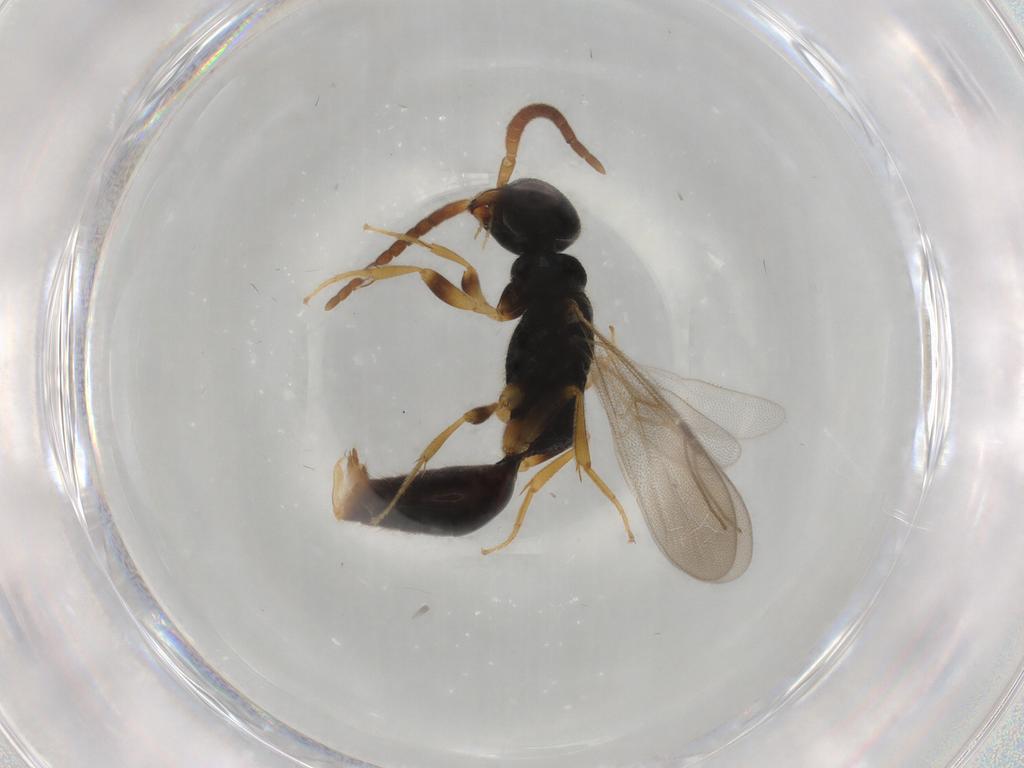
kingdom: Animalia
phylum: Arthropoda
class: Insecta
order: Hymenoptera
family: Bethylidae
